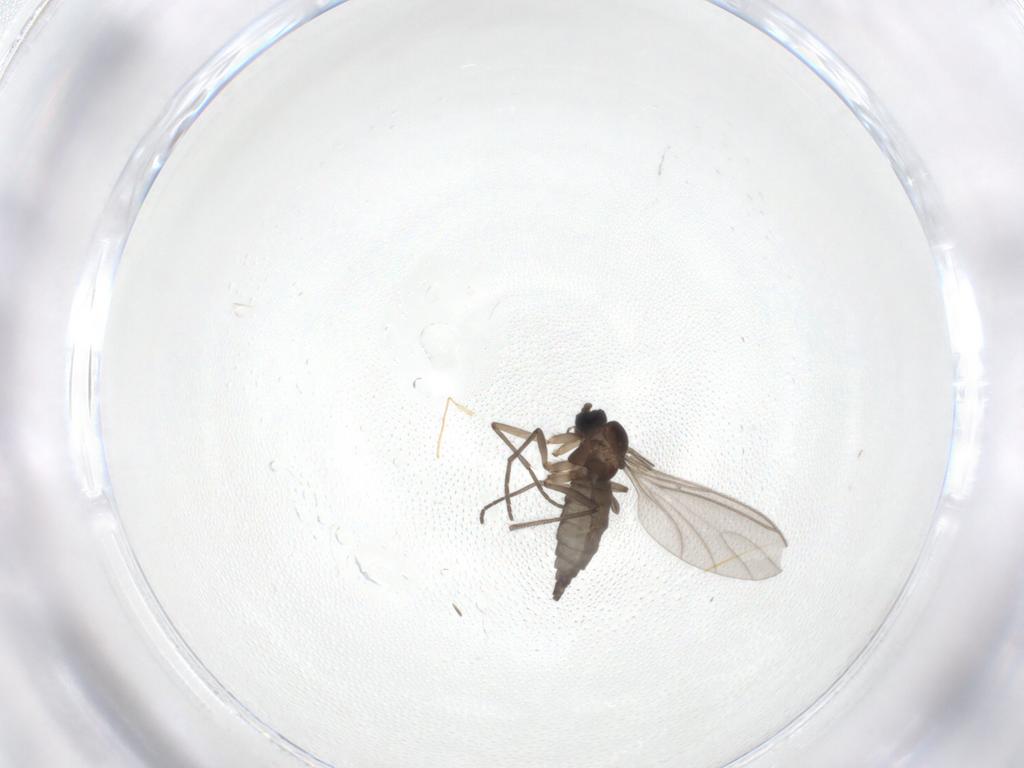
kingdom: Animalia
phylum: Arthropoda
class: Insecta
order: Diptera
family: Sciaridae
